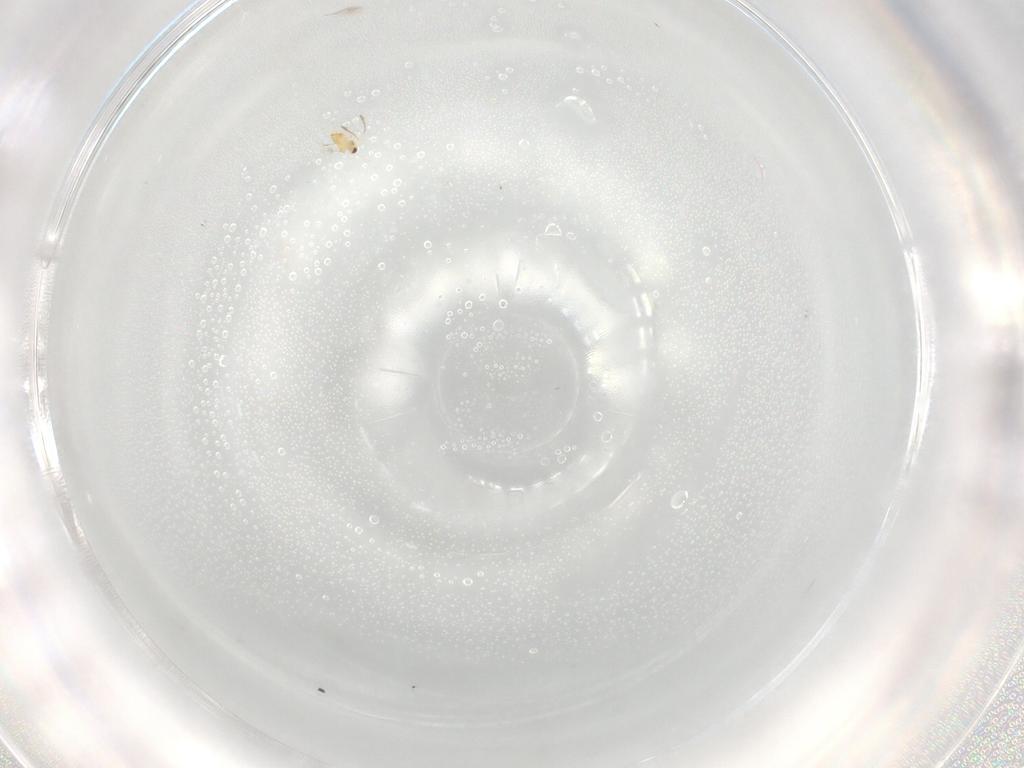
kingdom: Animalia
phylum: Arthropoda
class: Insecta
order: Hymenoptera
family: Mymaridae
